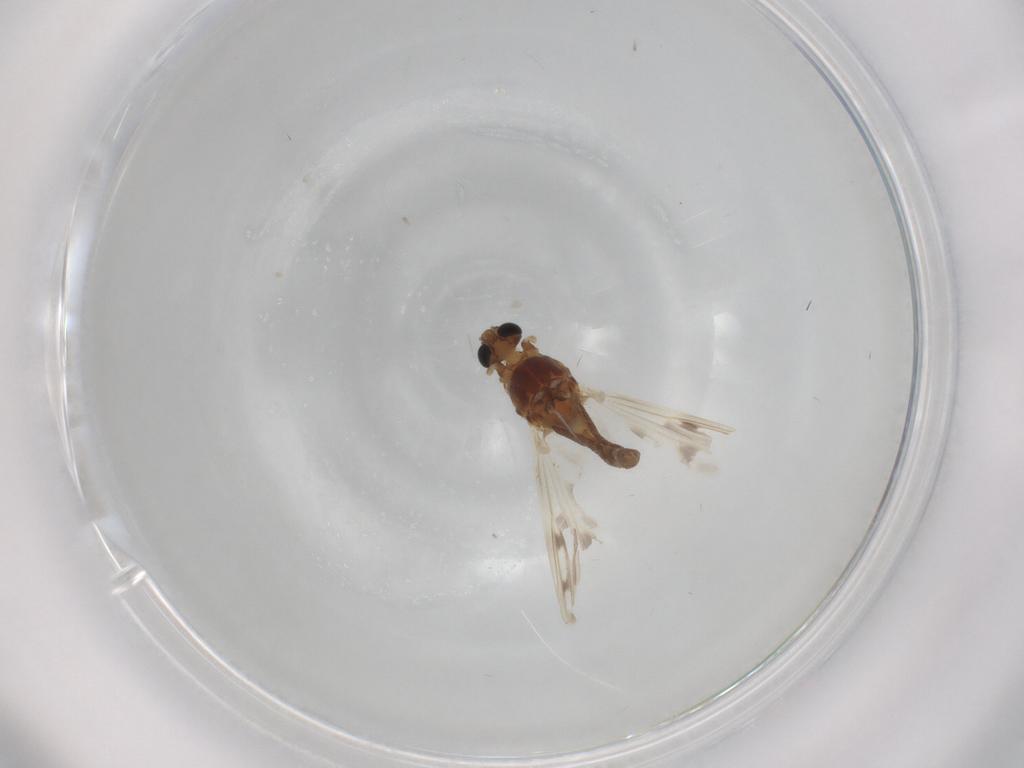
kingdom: Animalia
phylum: Arthropoda
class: Insecta
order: Diptera
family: Chironomidae
